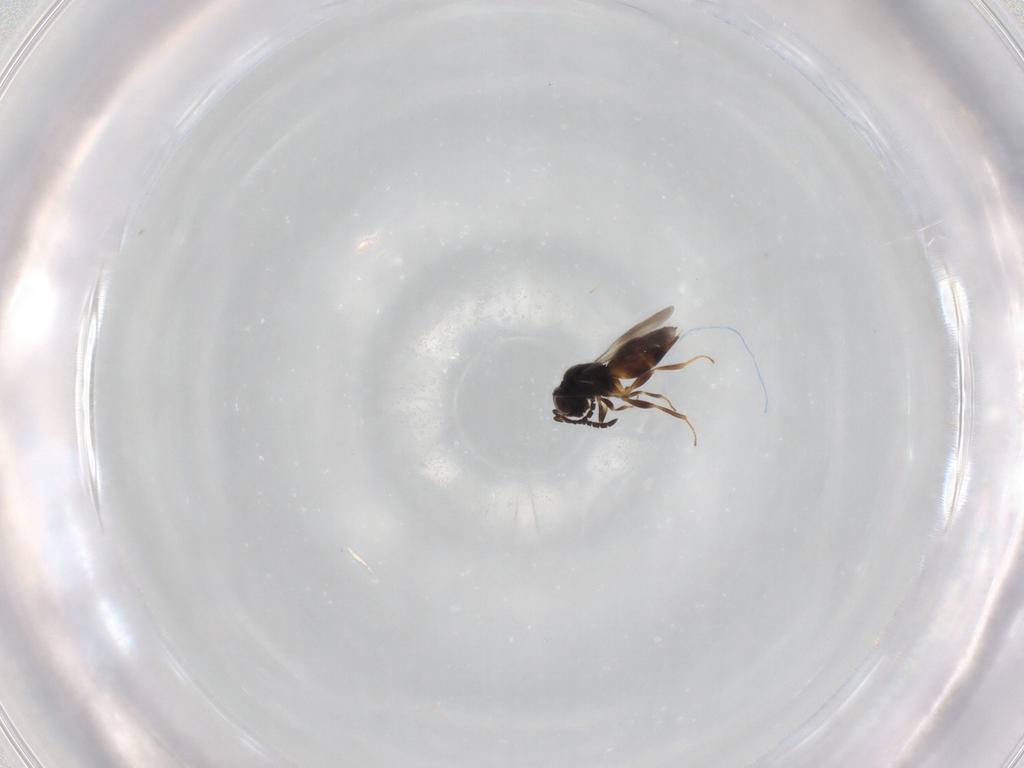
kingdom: Animalia
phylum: Arthropoda
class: Insecta
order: Hymenoptera
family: Ceraphronidae
